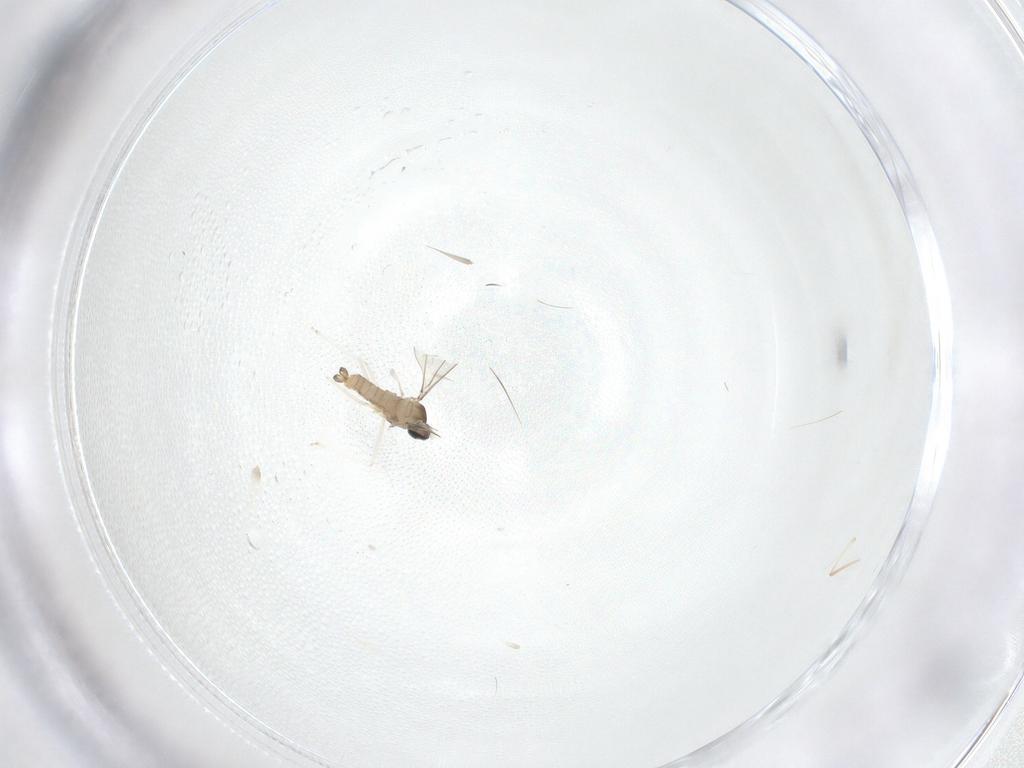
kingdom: Animalia
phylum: Arthropoda
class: Insecta
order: Diptera
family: Cecidomyiidae
